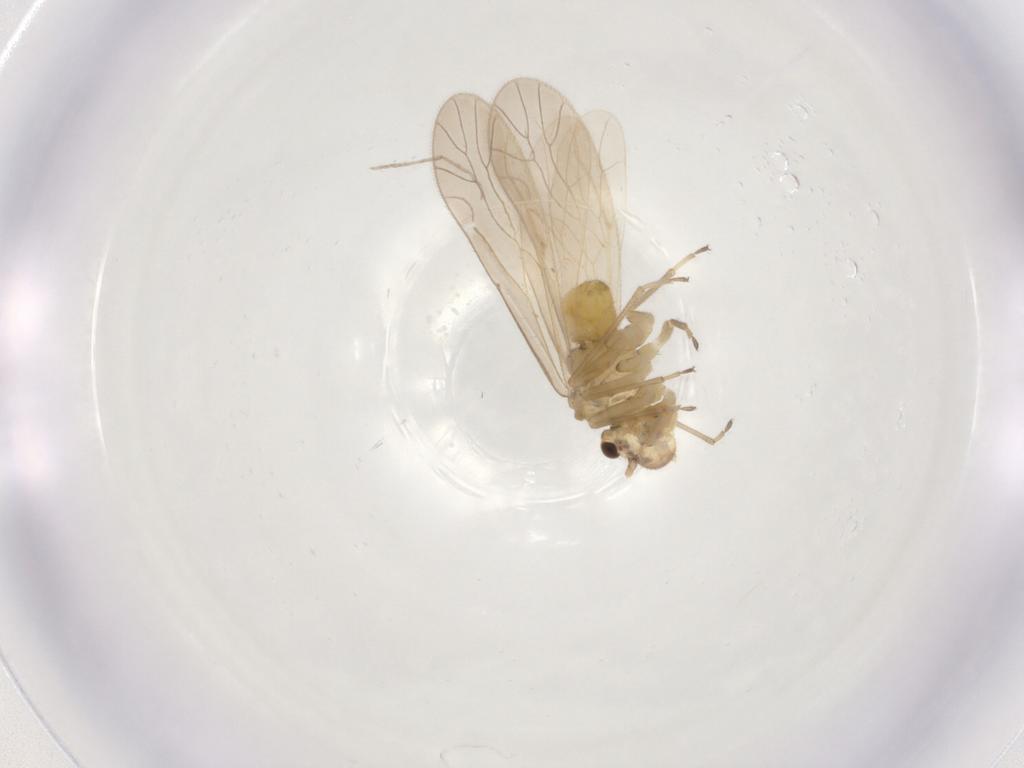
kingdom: Animalia
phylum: Arthropoda
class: Insecta
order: Psocodea
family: Caeciliusidae
